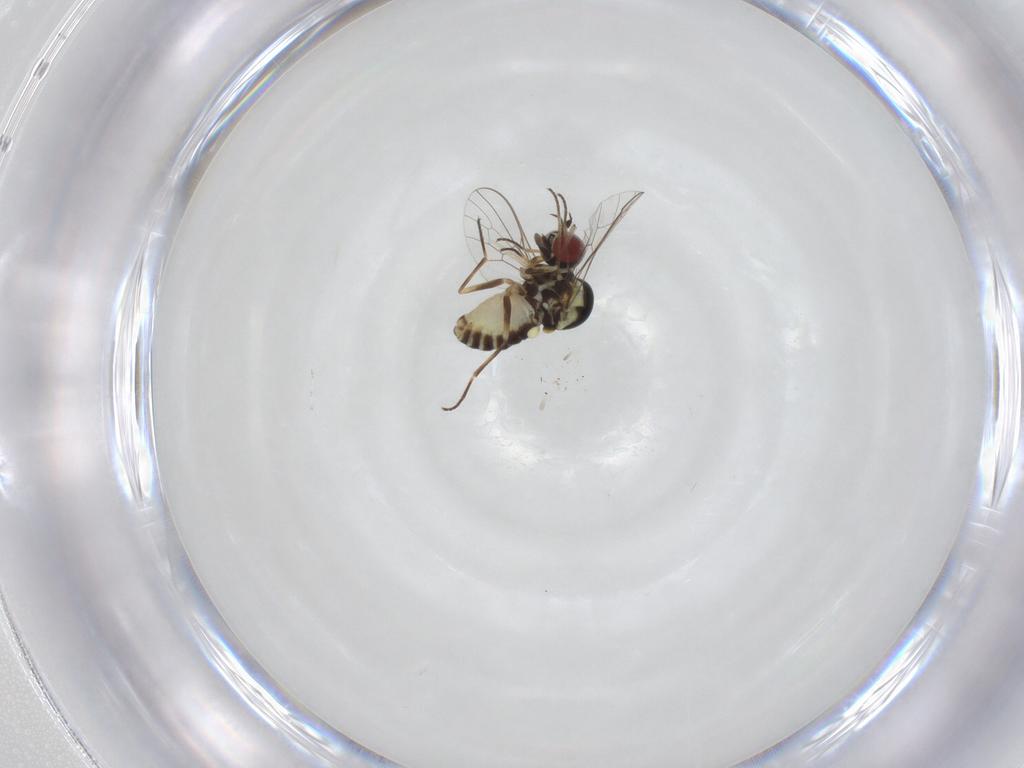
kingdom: Animalia
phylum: Arthropoda
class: Insecta
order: Diptera
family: Bombyliidae
